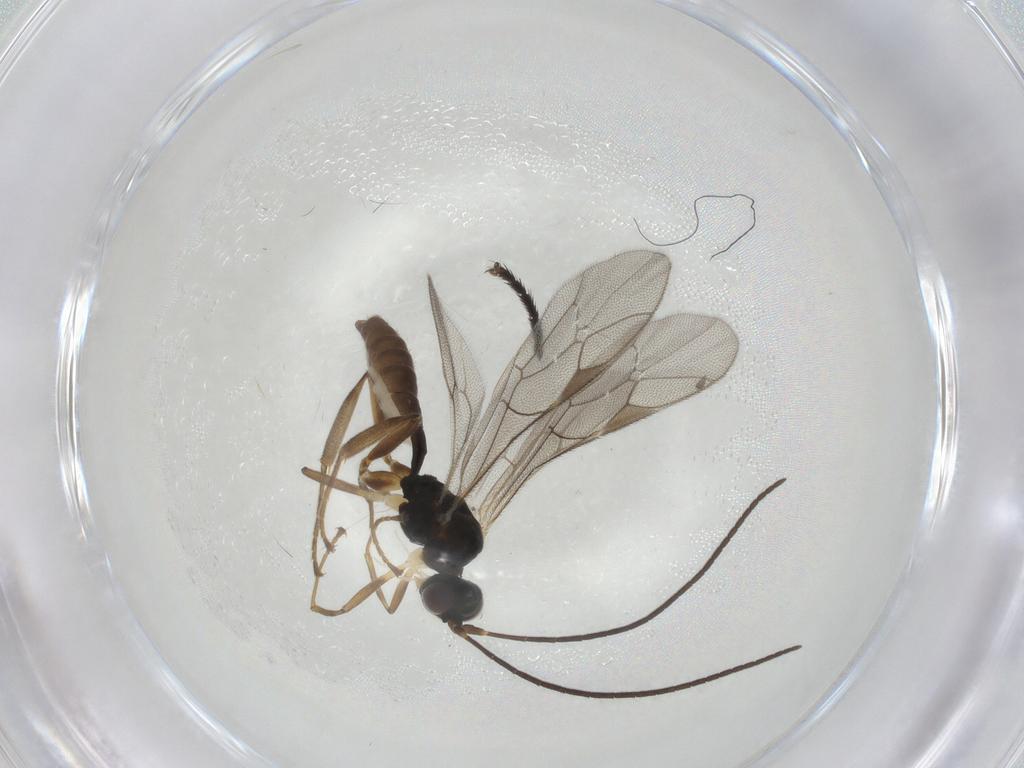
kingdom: Animalia
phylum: Arthropoda
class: Insecta
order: Hymenoptera
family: Ichneumonidae
